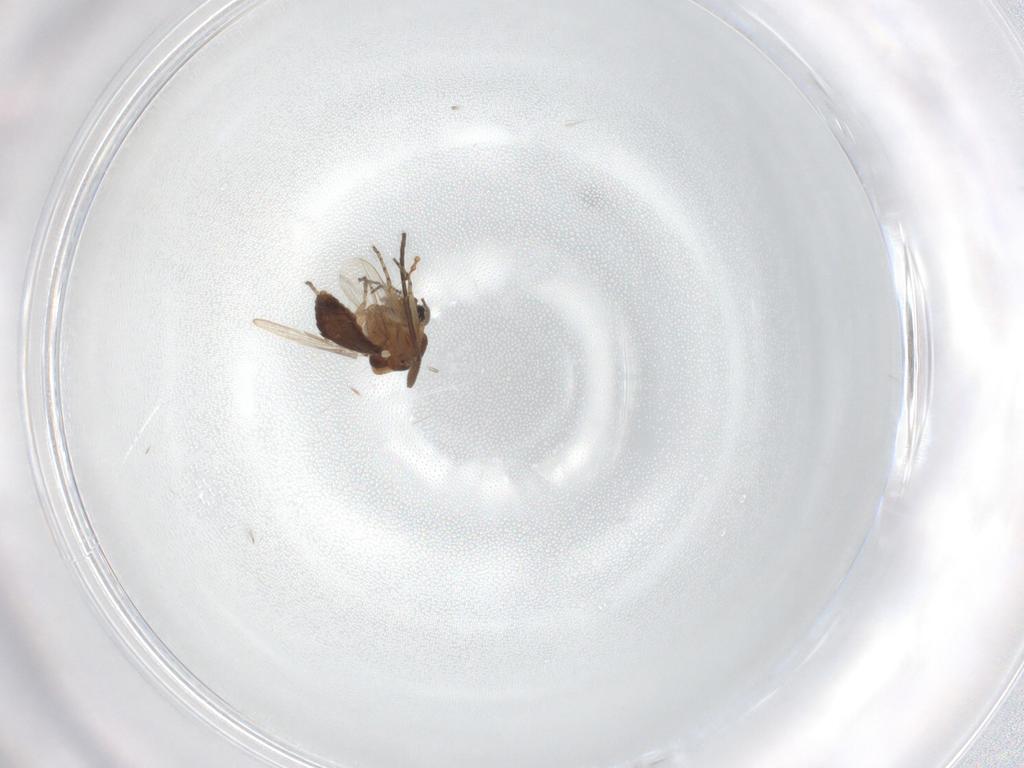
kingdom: Animalia
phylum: Arthropoda
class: Insecta
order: Diptera
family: Ceratopogonidae
